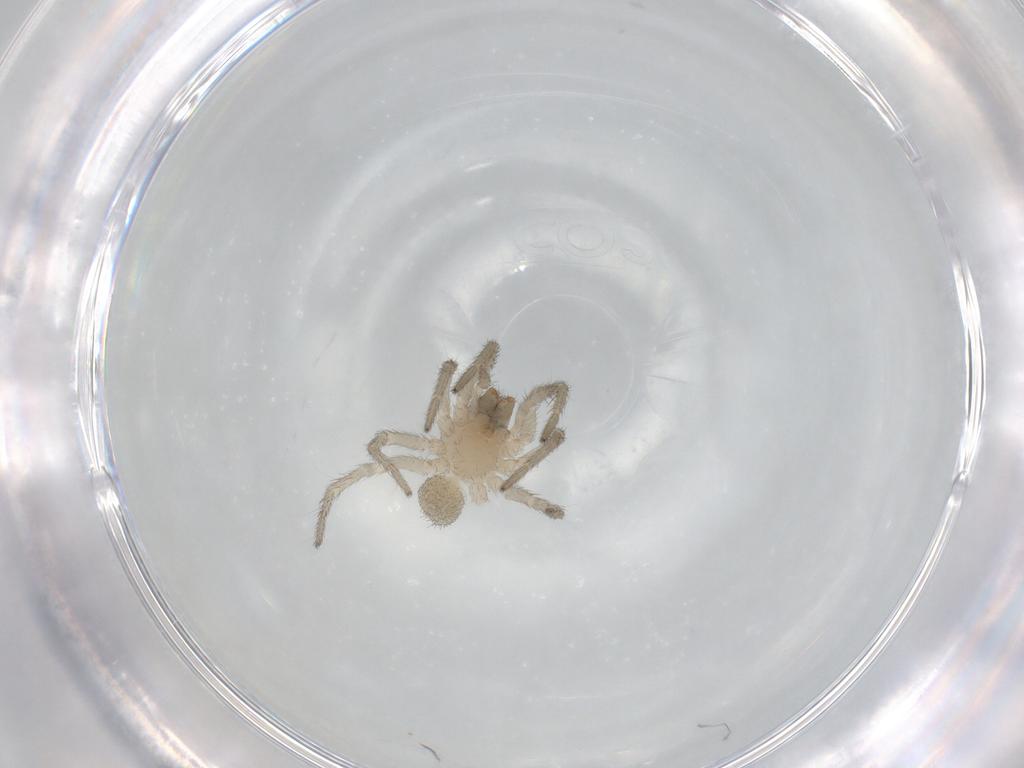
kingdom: Animalia
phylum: Arthropoda
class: Arachnida
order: Araneae
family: Lycosidae
